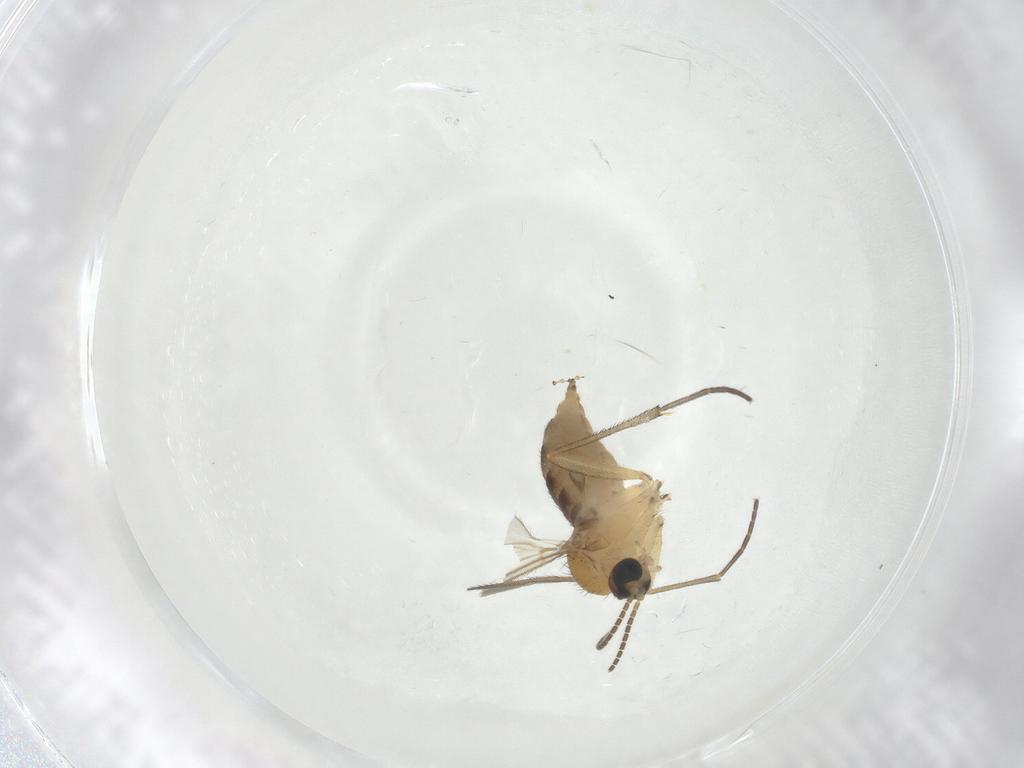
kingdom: Animalia
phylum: Arthropoda
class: Insecta
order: Diptera
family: Sciaridae
